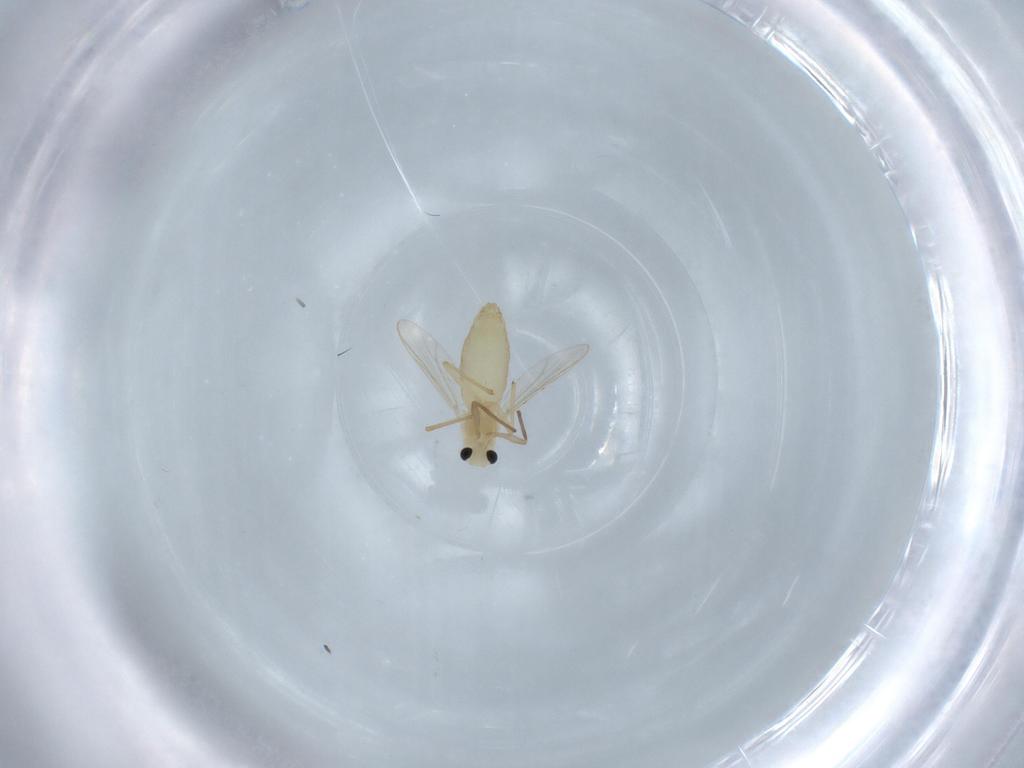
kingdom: Animalia
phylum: Arthropoda
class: Insecta
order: Diptera
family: Chironomidae
